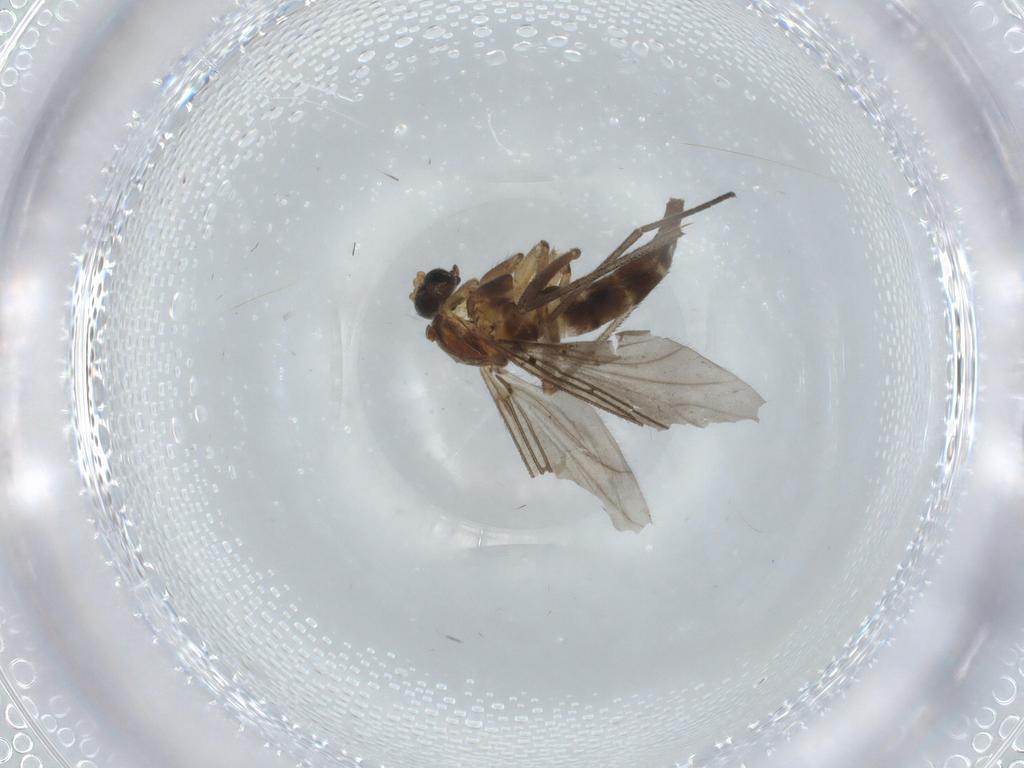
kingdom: Animalia
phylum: Arthropoda
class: Insecta
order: Diptera
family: Sciaridae
